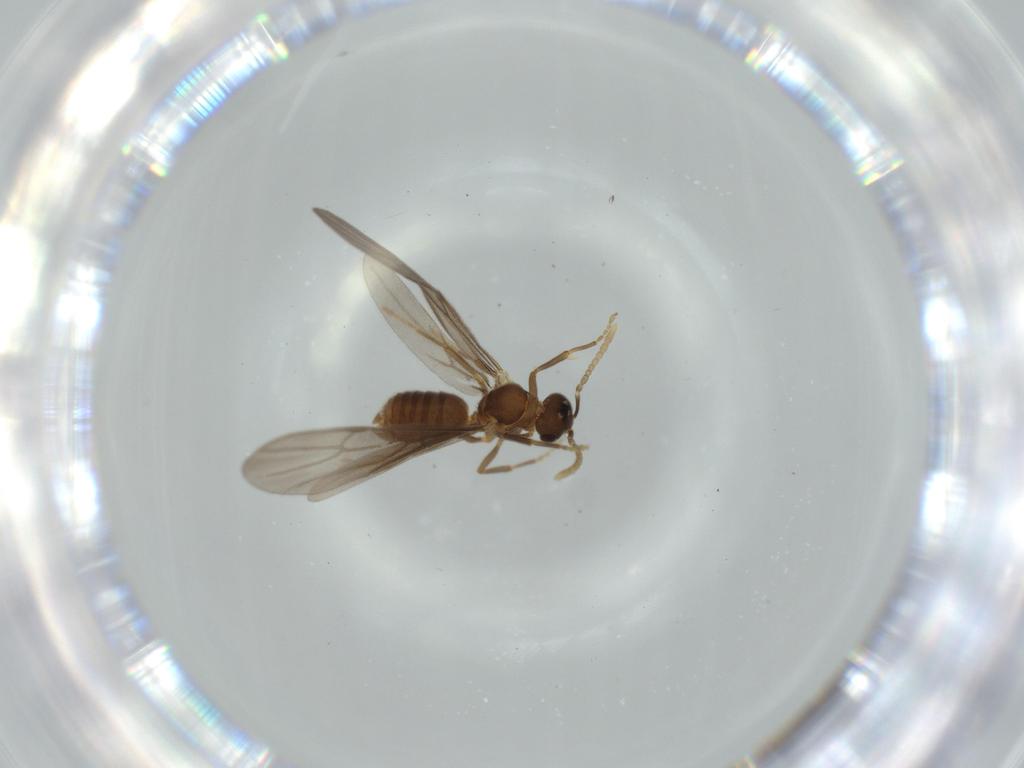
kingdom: Animalia
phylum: Arthropoda
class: Insecta
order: Hymenoptera
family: Formicidae
